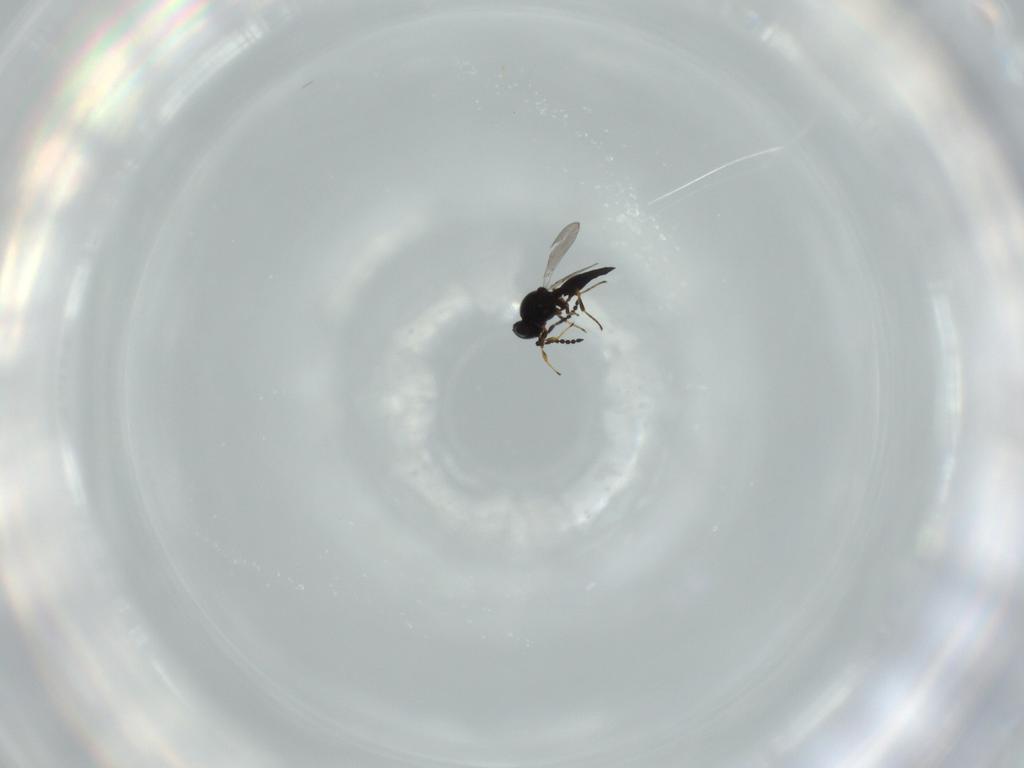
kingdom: Animalia
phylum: Arthropoda
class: Insecta
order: Hymenoptera
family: Platygastridae
